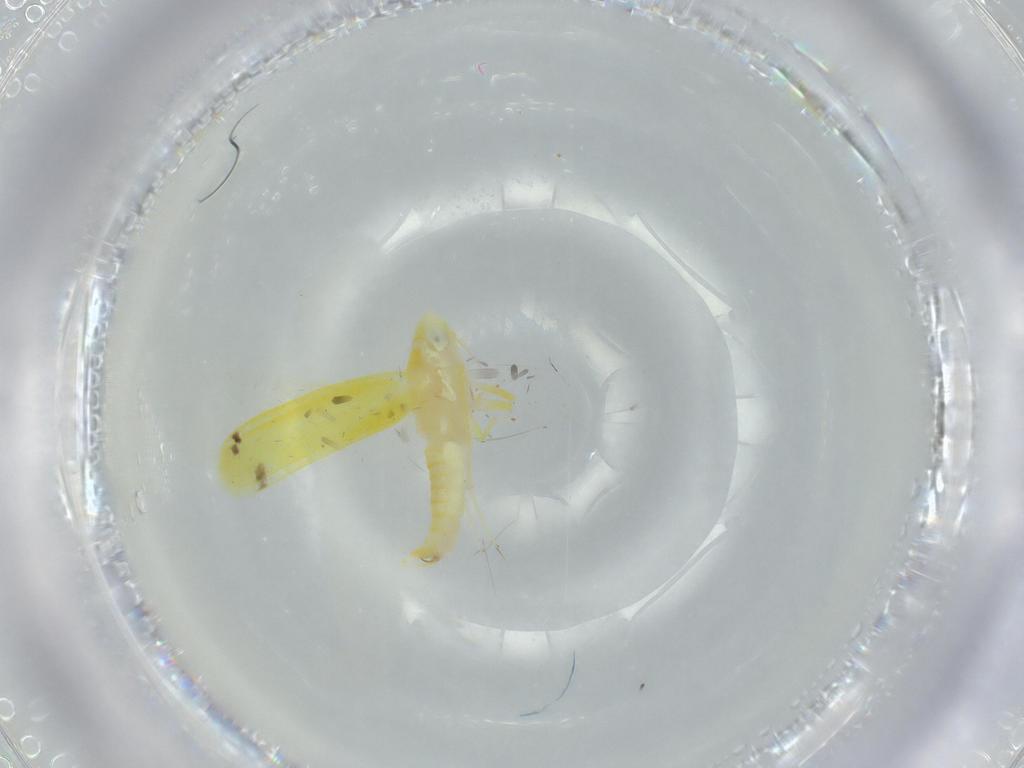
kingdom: Animalia
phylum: Arthropoda
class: Insecta
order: Hemiptera
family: Cicadellidae
